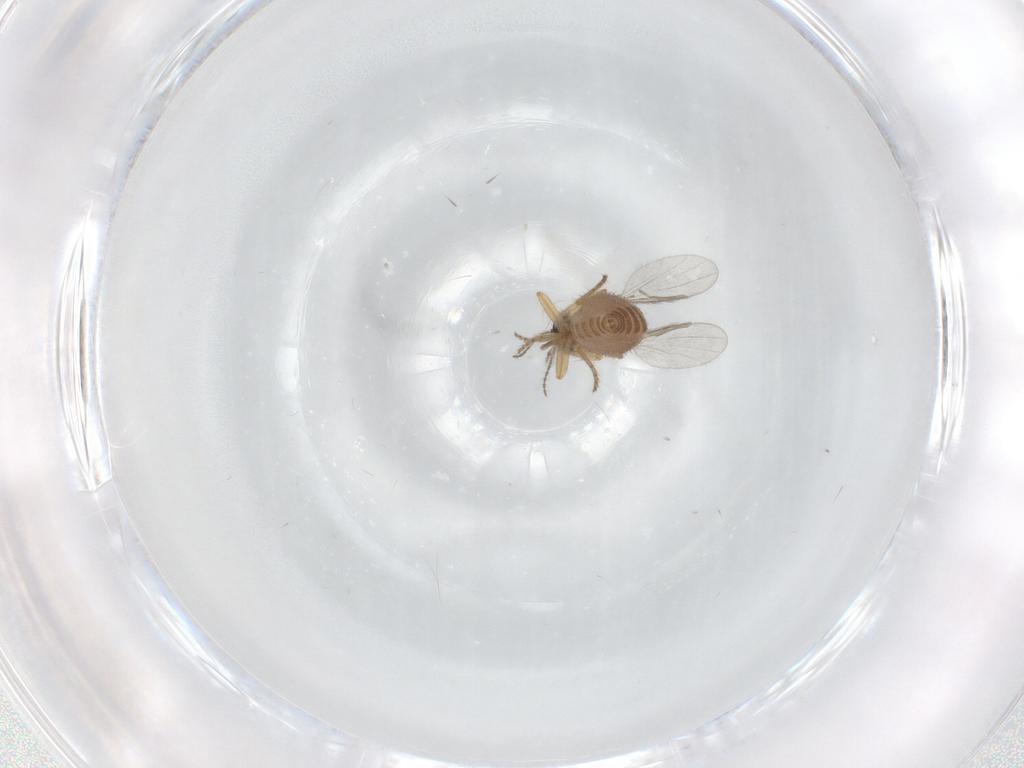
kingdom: Animalia
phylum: Arthropoda
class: Insecta
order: Diptera
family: Ceratopogonidae
